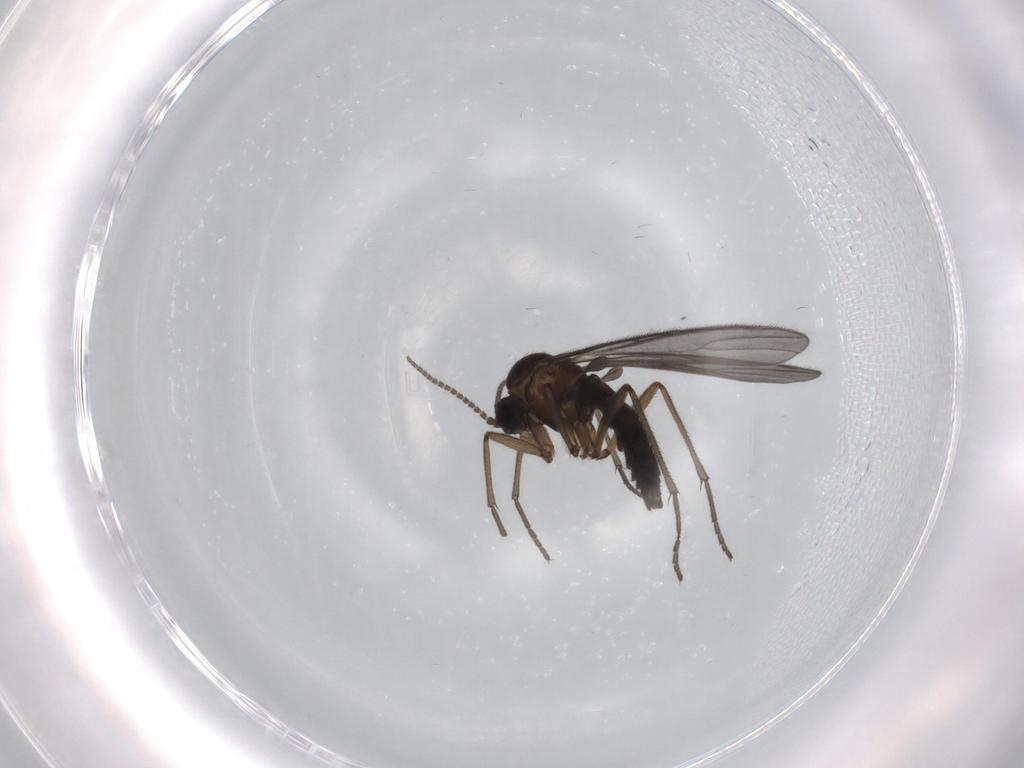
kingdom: Animalia
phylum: Arthropoda
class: Insecta
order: Diptera
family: Sciaridae
